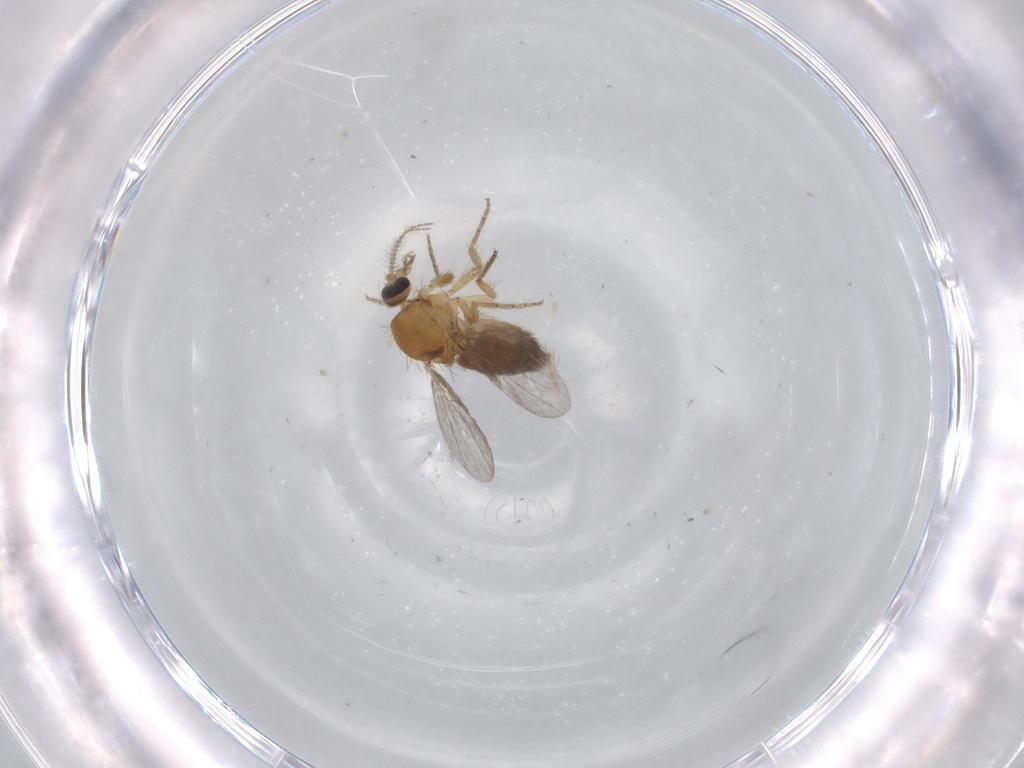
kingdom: Animalia
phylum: Arthropoda
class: Insecta
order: Diptera
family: Ceratopogonidae
